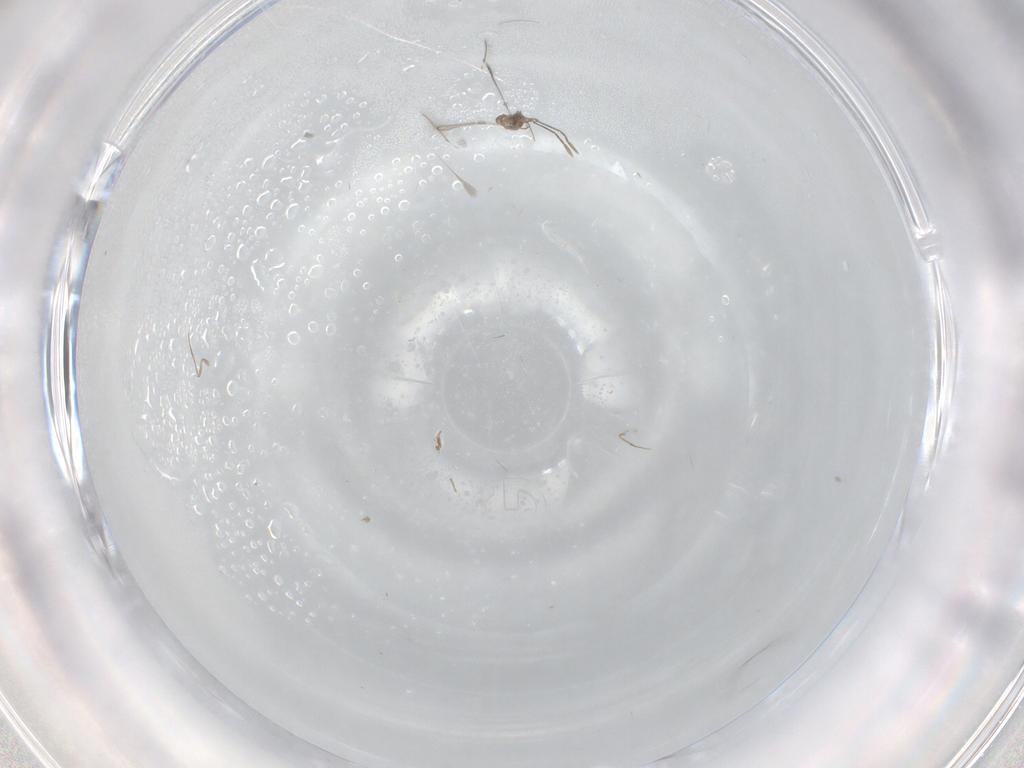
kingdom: Animalia
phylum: Arthropoda
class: Insecta
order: Hymenoptera
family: Mymaridae
